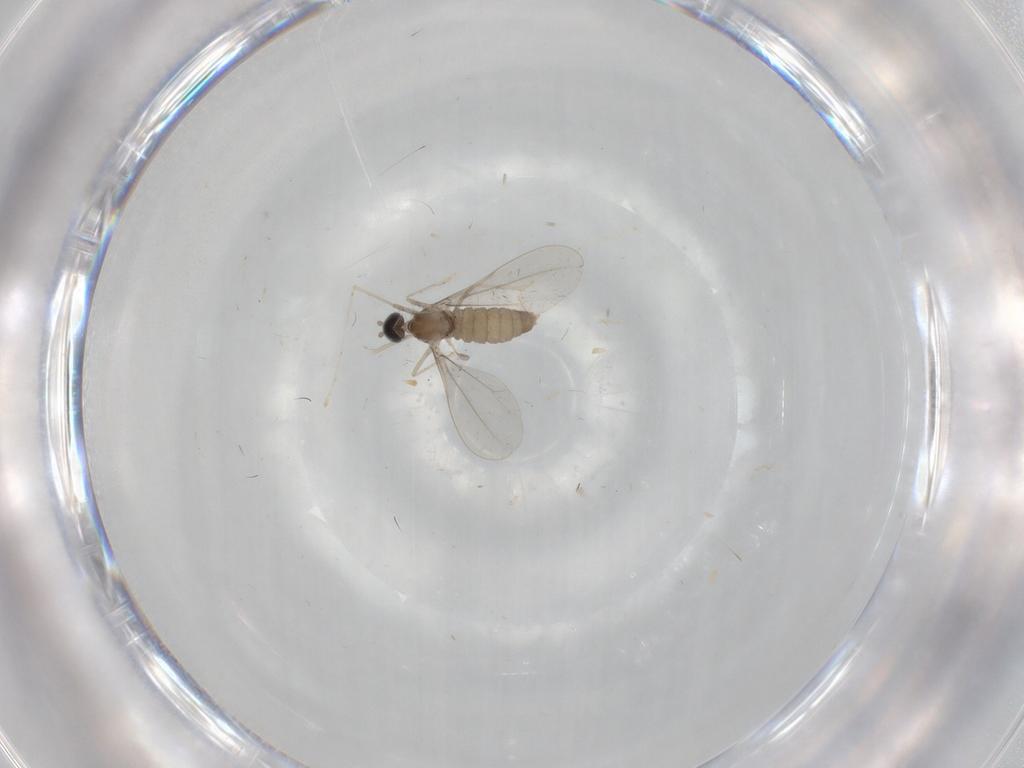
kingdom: Animalia
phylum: Arthropoda
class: Insecta
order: Diptera
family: Cecidomyiidae
